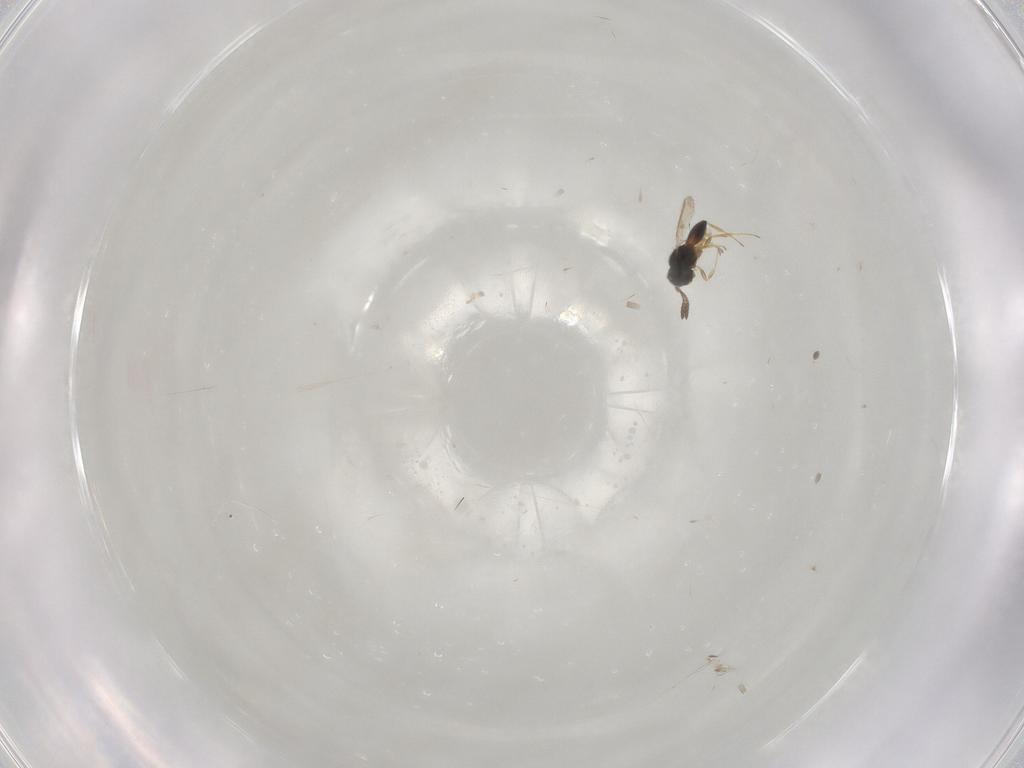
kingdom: Animalia
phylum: Arthropoda
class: Insecta
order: Hymenoptera
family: Scelionidae
